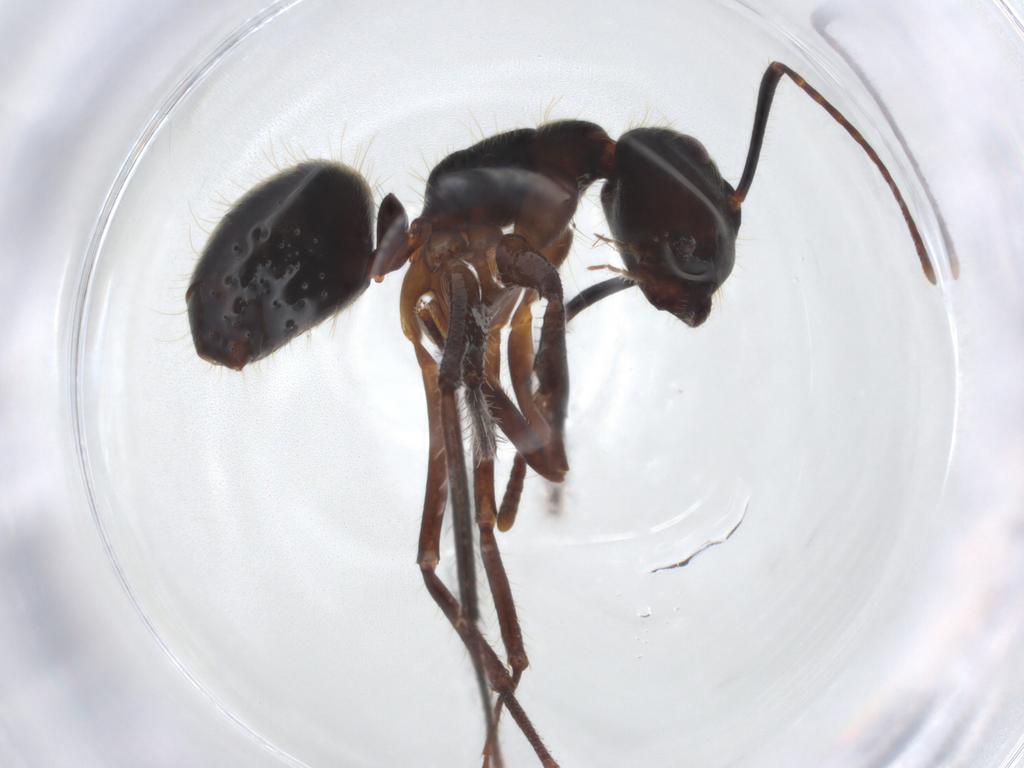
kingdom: Animalia
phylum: Arthropoda
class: Insecta
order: Hymenoptera
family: Formicidae
